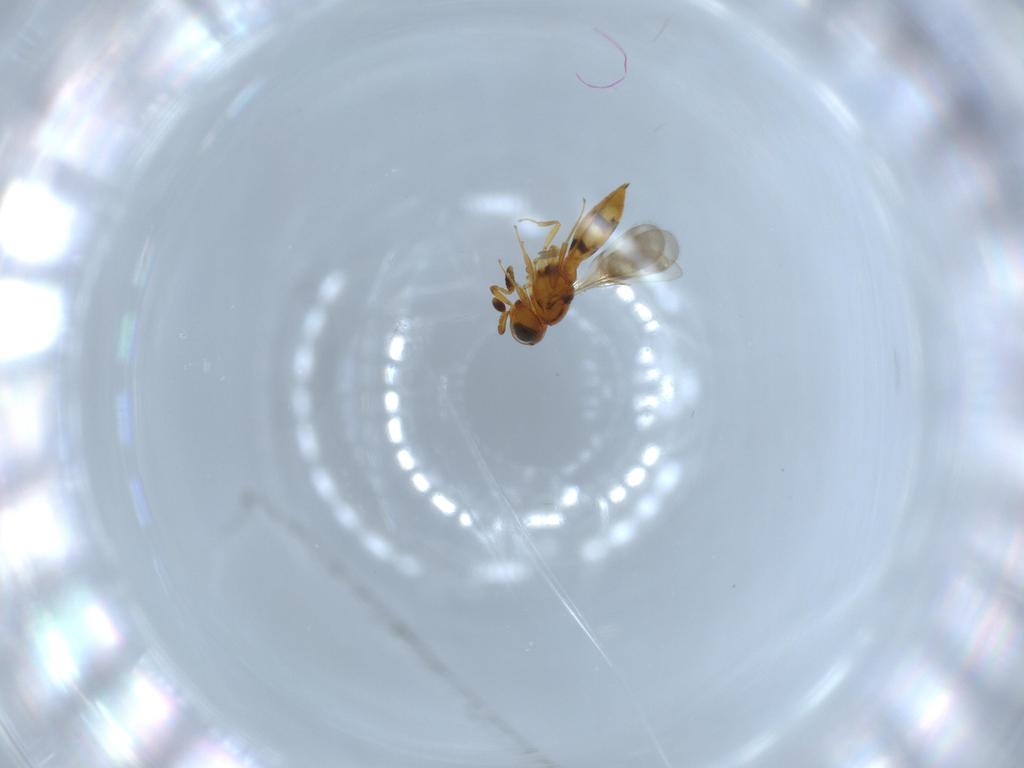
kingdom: Animalia
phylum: Arthropoda
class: Insecta
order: Hymenoptera
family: Scelionidae
